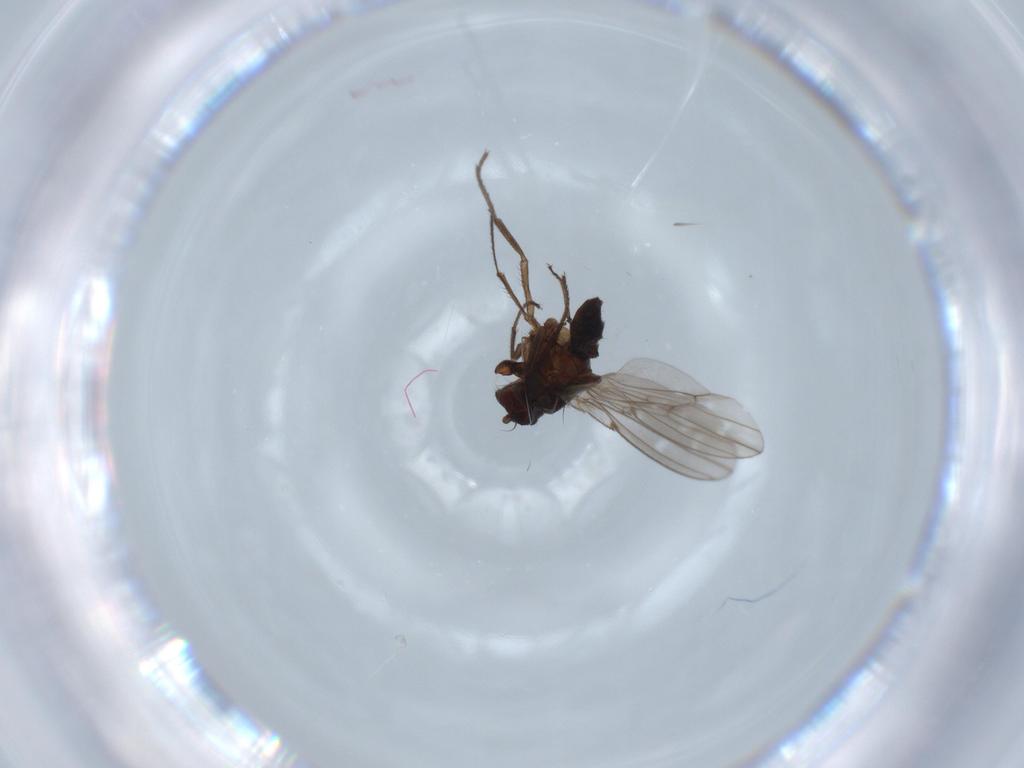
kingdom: Animalia
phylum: Arthropoda
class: Insecta
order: Diptera
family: Ephydridae
